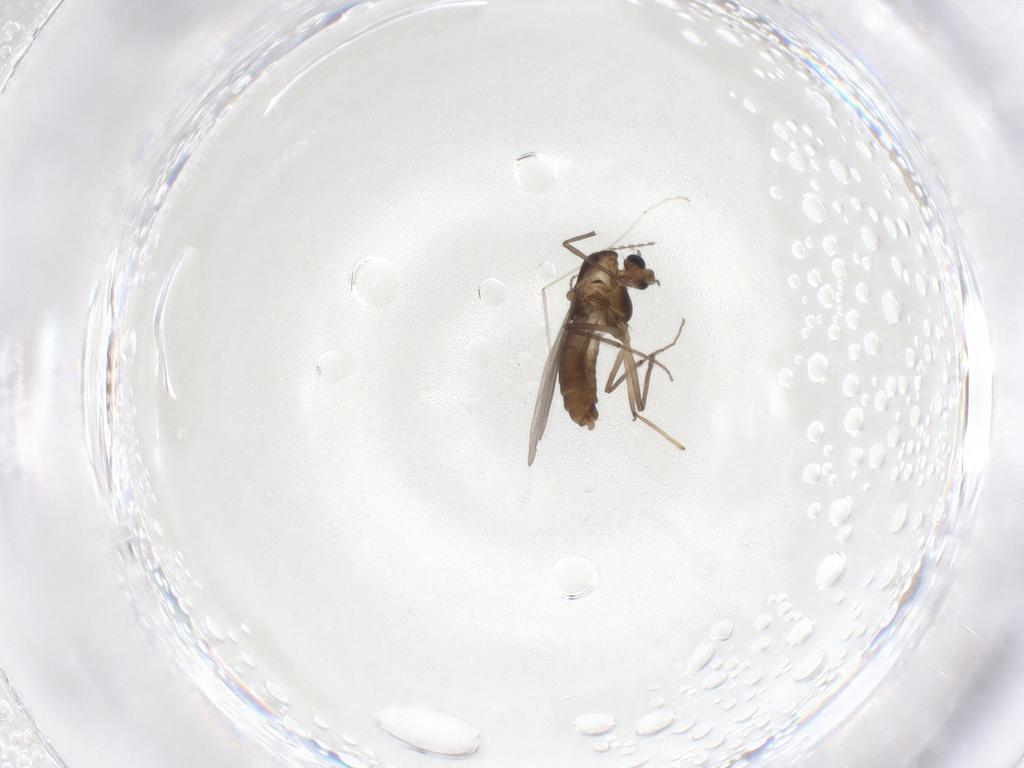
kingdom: Animalia
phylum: Arthropoda
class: Insecta
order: Diptera
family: Chironomidae
